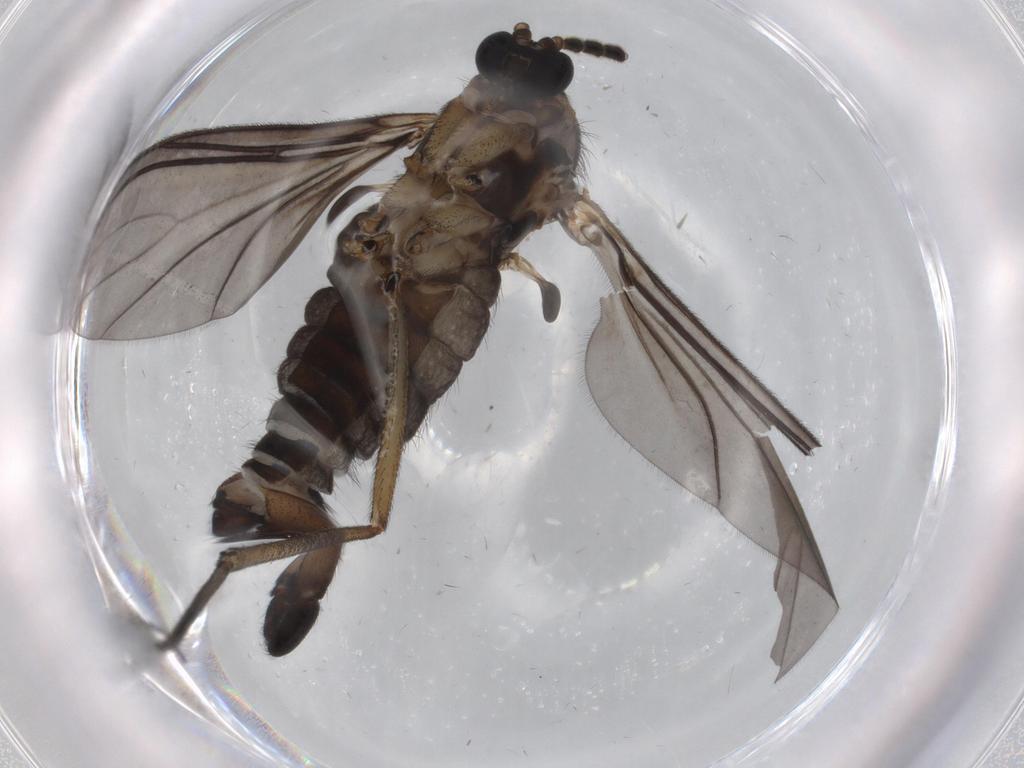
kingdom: Animalia
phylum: Arthropoda
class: Insecta
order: Diptera
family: Sciaridae
